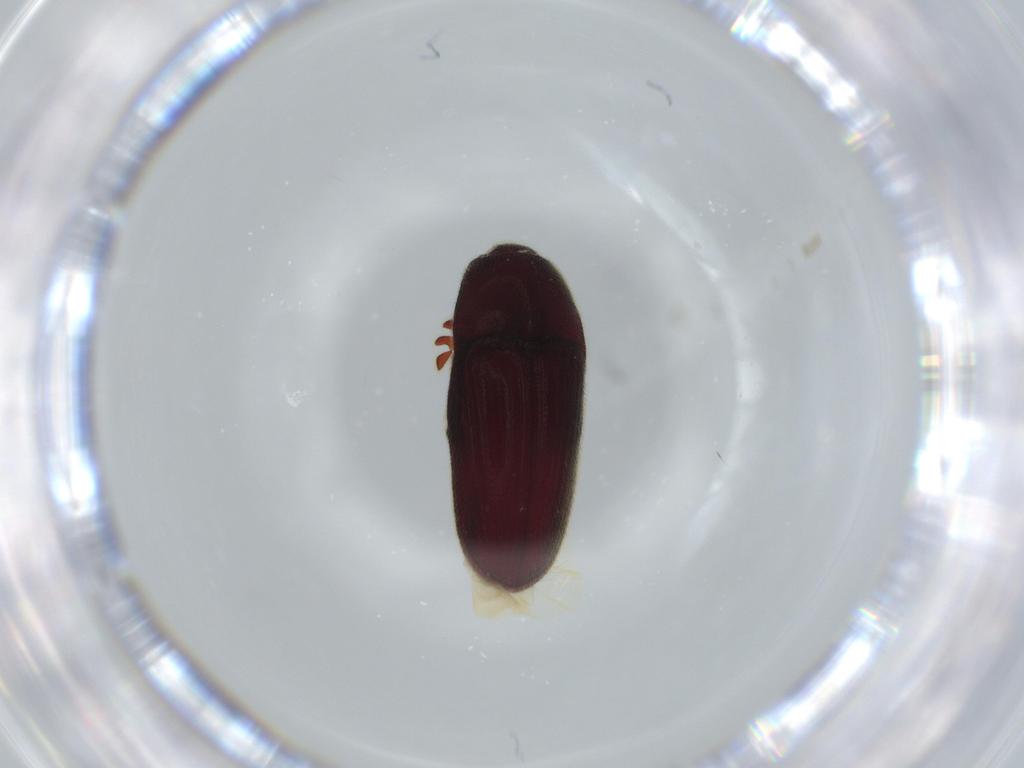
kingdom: Animalia
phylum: Arthropoda
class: Insecta
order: Coleoptera
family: Throscidae
